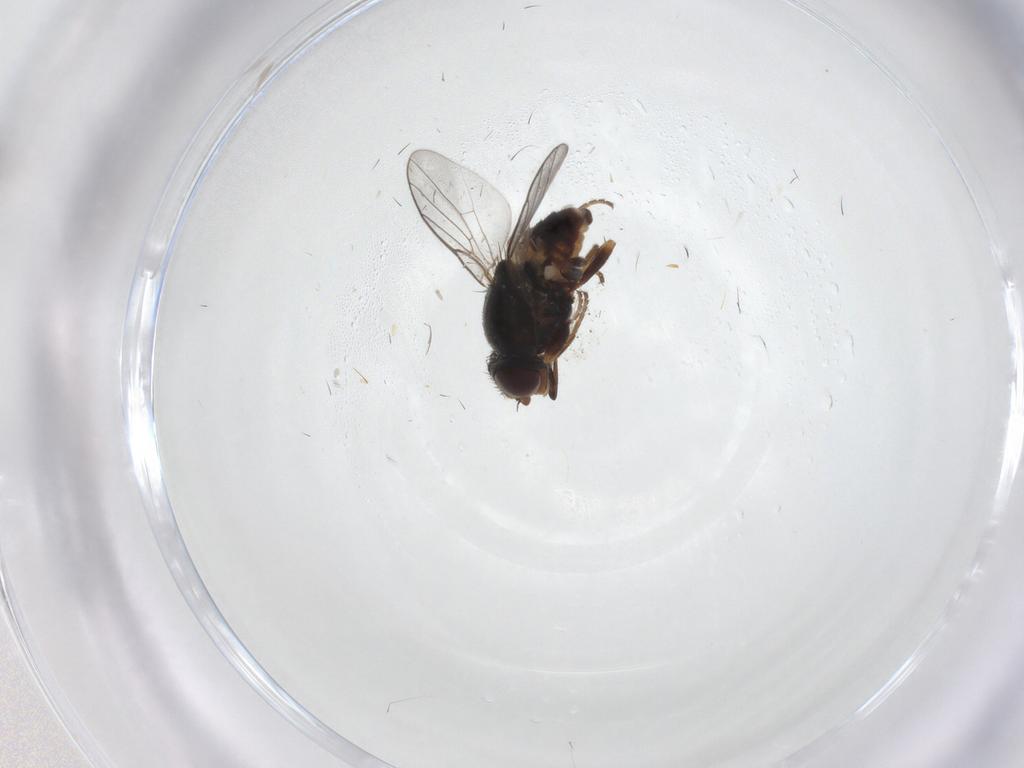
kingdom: Animalia
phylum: Arthropoda
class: Insecta
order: Diptera
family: Chloropidae
